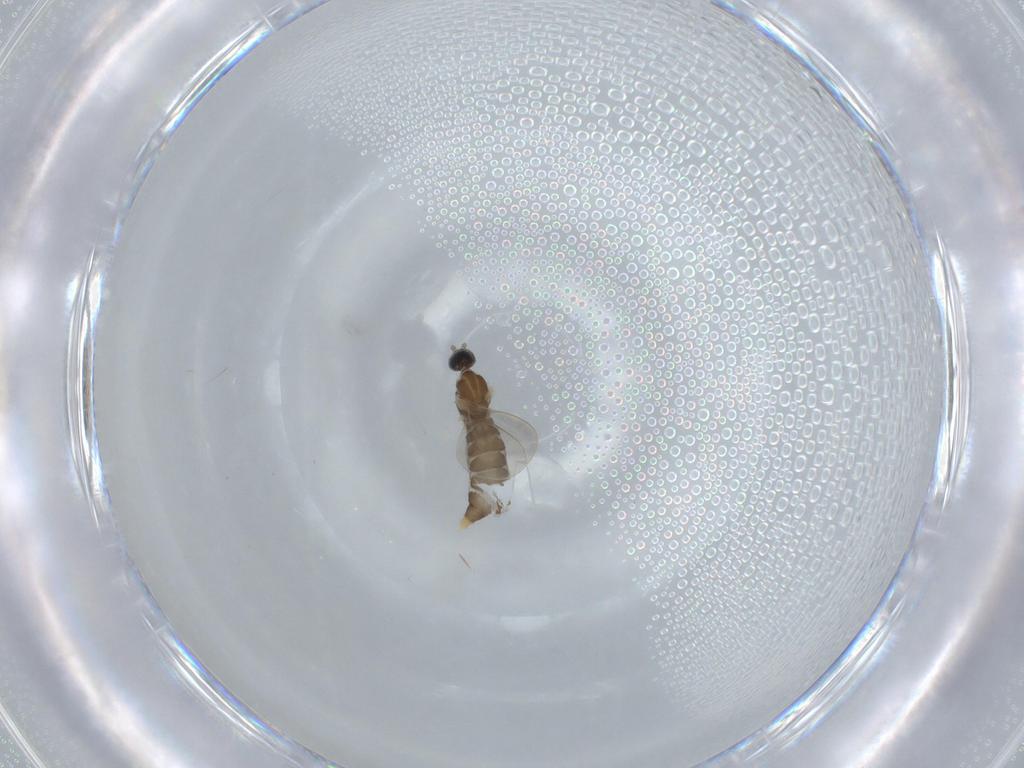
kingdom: Animalia
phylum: Arthropoda
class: Insecta
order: Diptera
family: Cecidomyiidae
